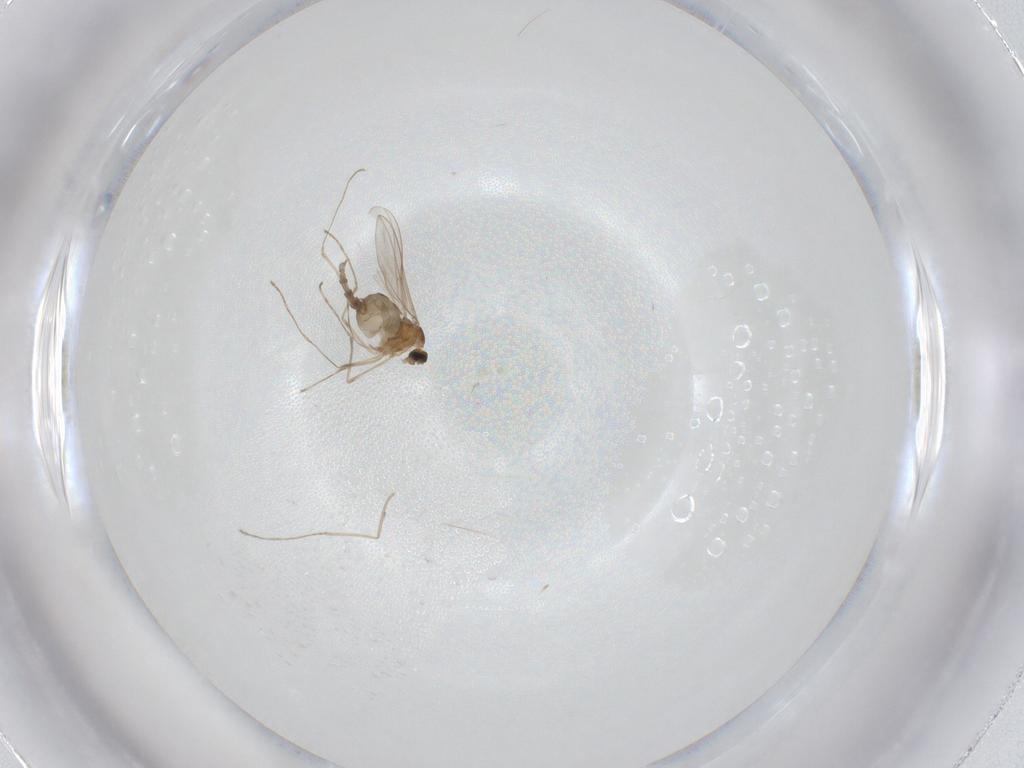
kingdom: Animalia
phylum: Arthropoda
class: Insecta
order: Diptera
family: Cecidomyiidae
